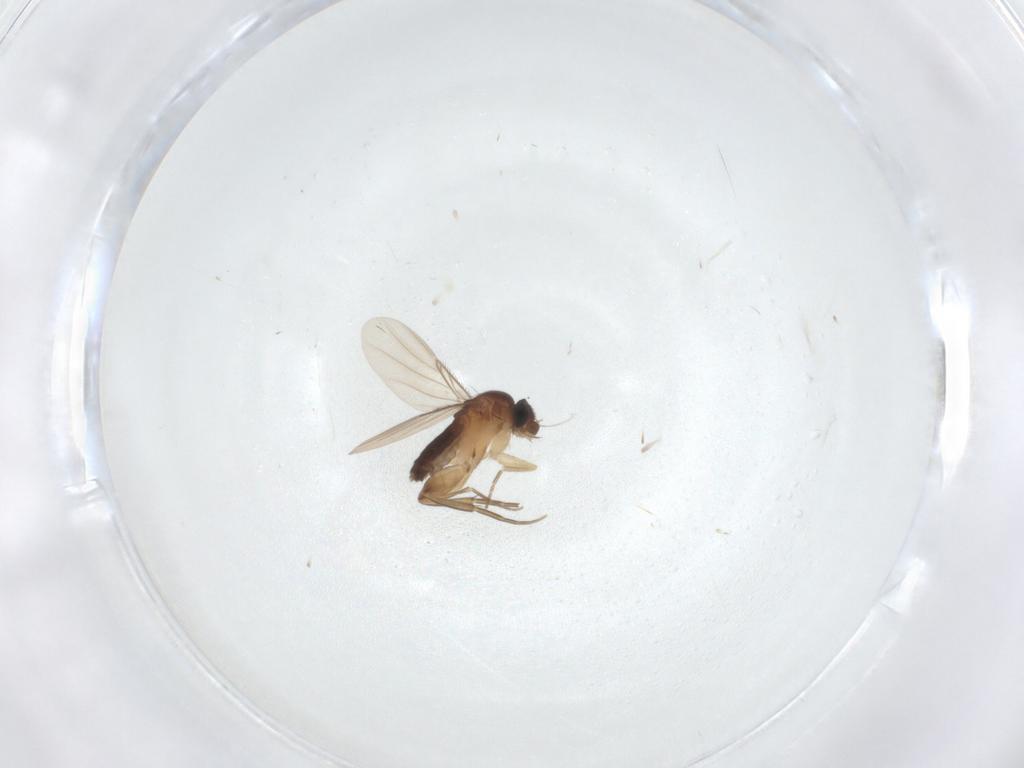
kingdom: Animalia
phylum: Arthropoda
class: Insecta
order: Diptera
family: Phoridae
